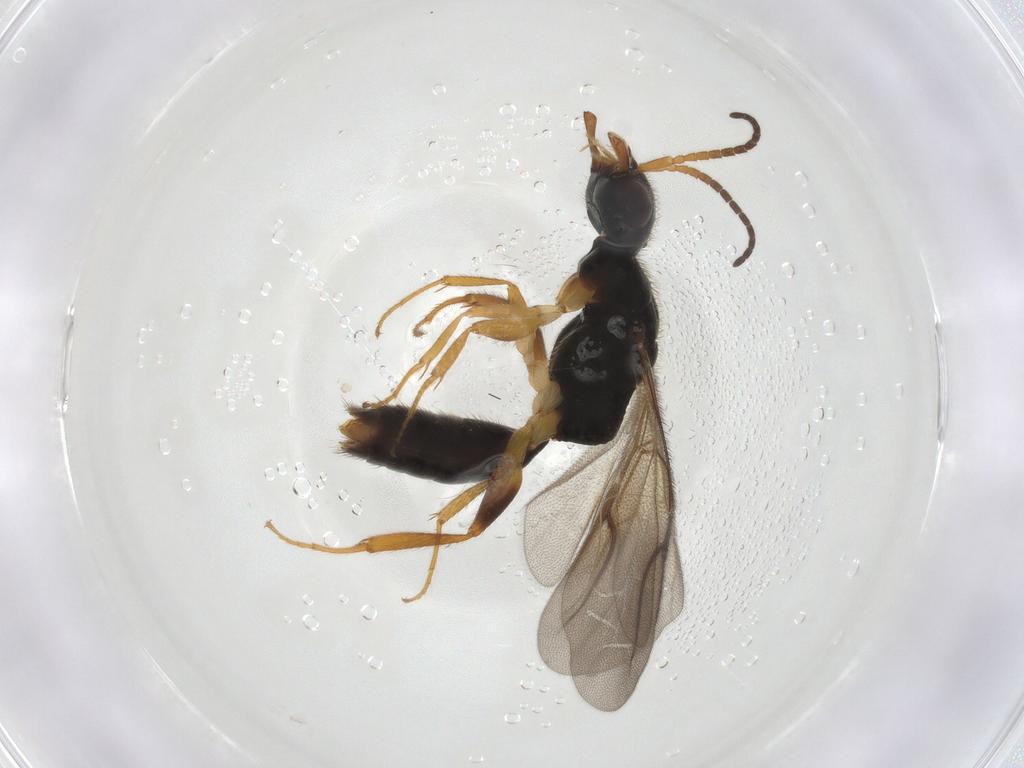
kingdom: Animalia
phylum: Arthropoda
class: Insecta
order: Hymenoptera
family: Bethylidae
